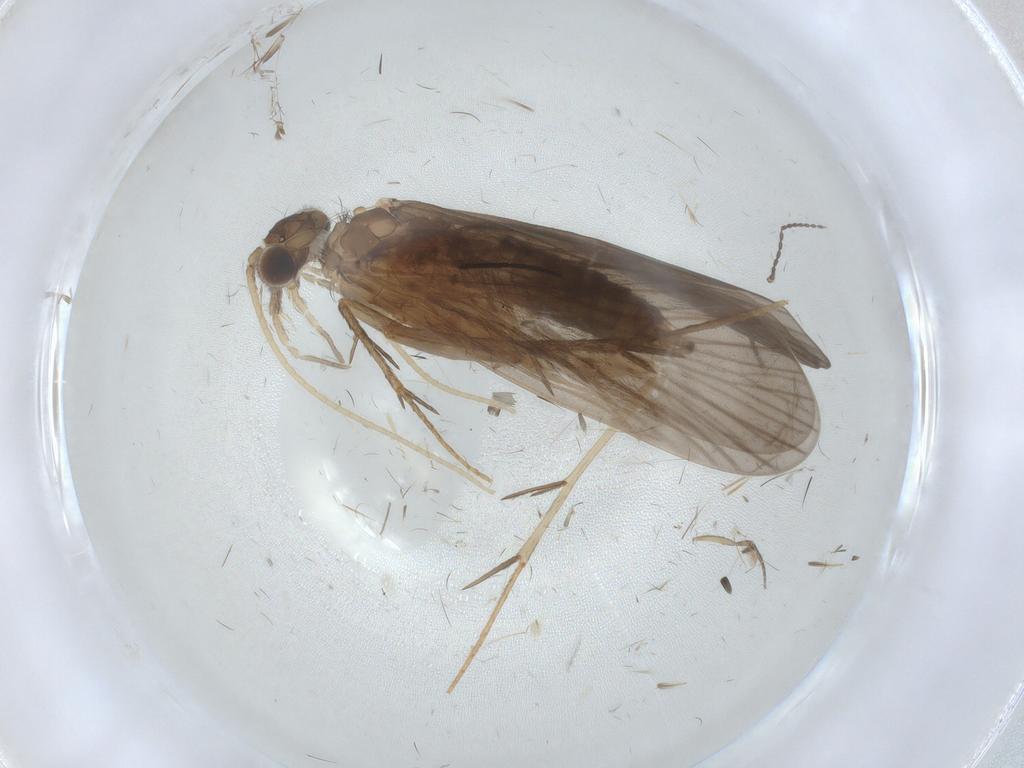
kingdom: Animalia
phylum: Arthropoda
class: Insecta
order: Trichoptera
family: Philopotamidae
